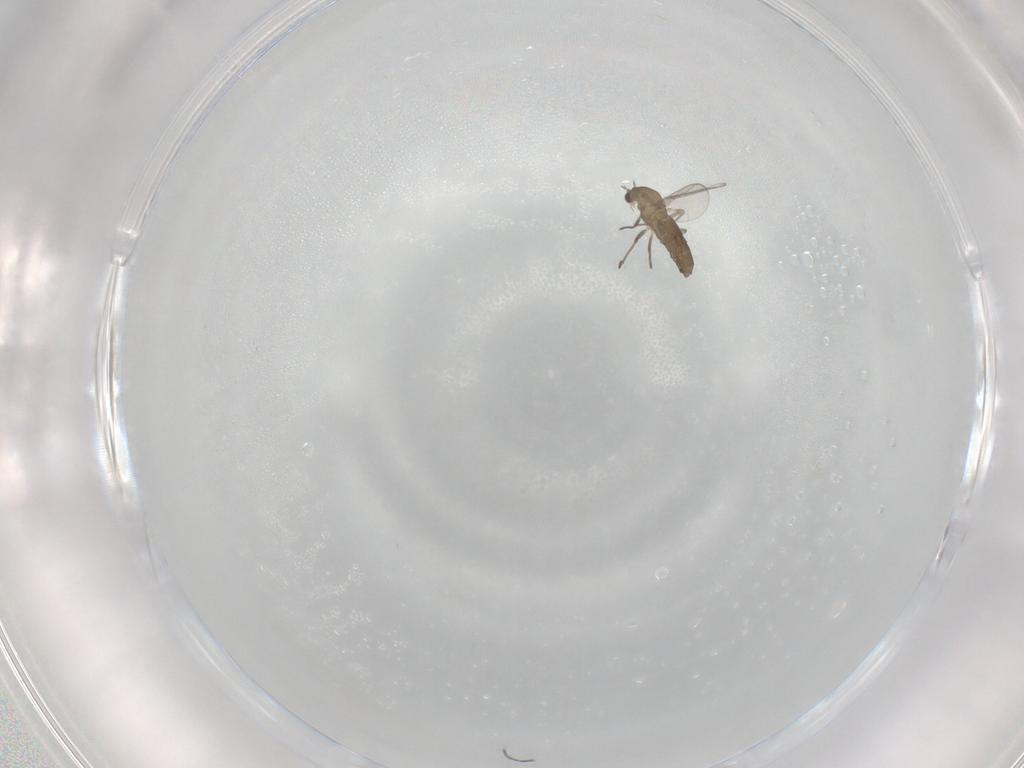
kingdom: Animalia
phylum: Arthropoda
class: Insecta
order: Diptera
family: Chironomidae
